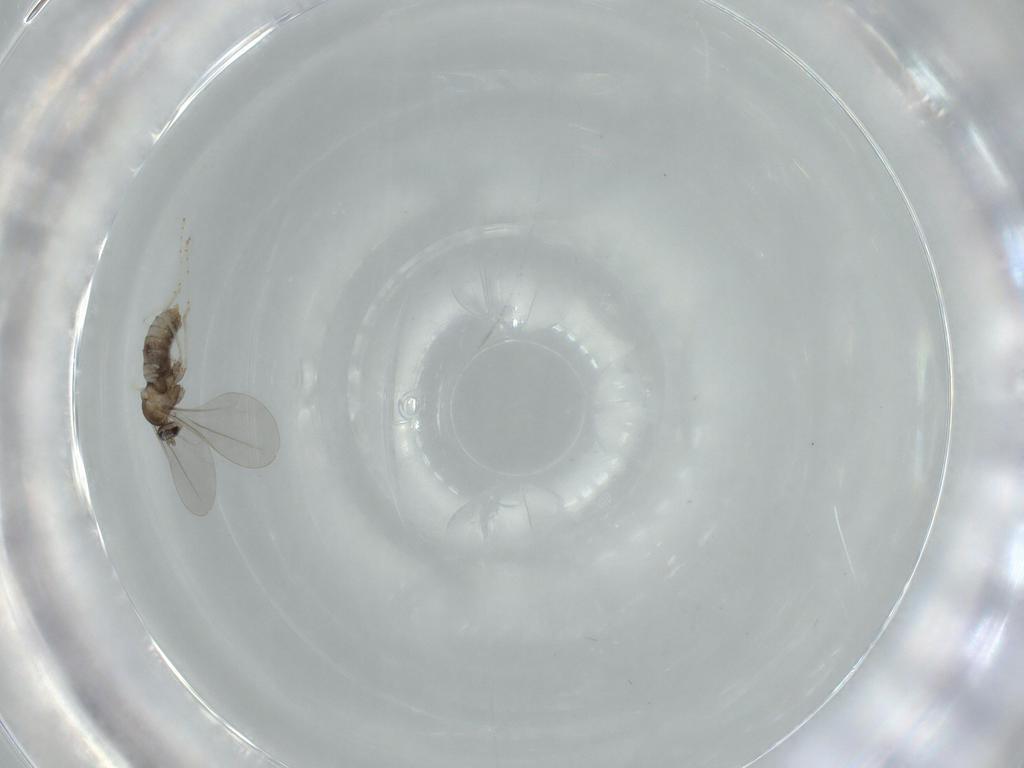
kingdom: Animalia
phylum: Arthropoda
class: Insecta
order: Diptera
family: Cecidomyiidae
